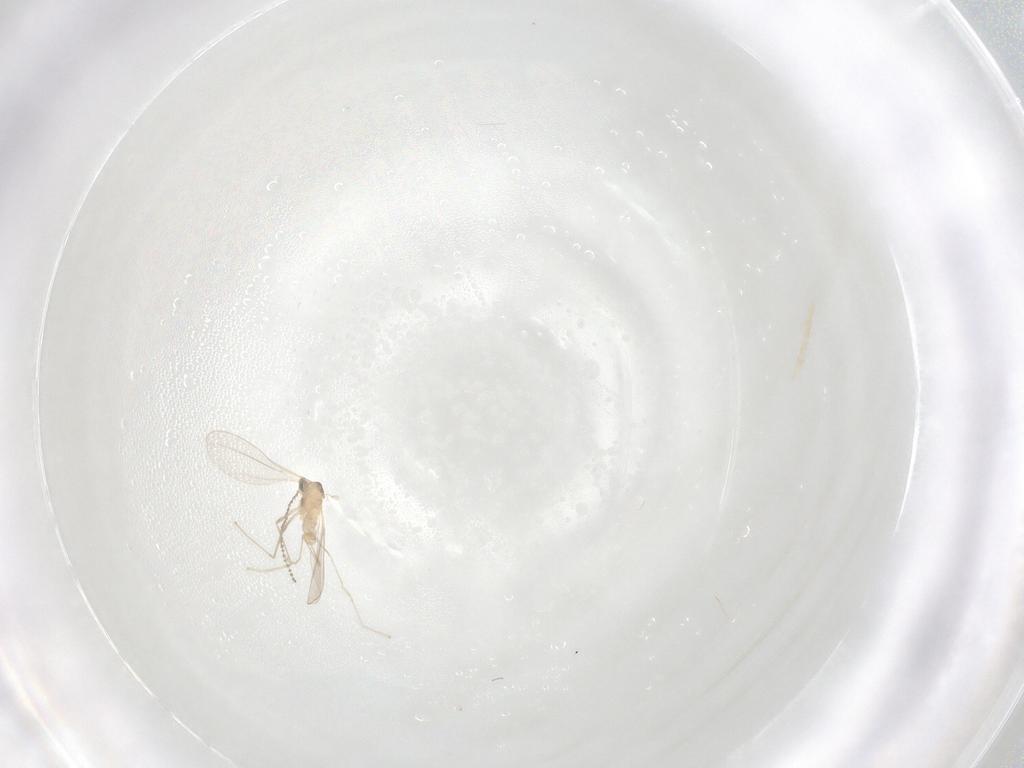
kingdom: Animalia
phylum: Arthropoda
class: Insecta
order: Diptera
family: Cecidomyiidae
